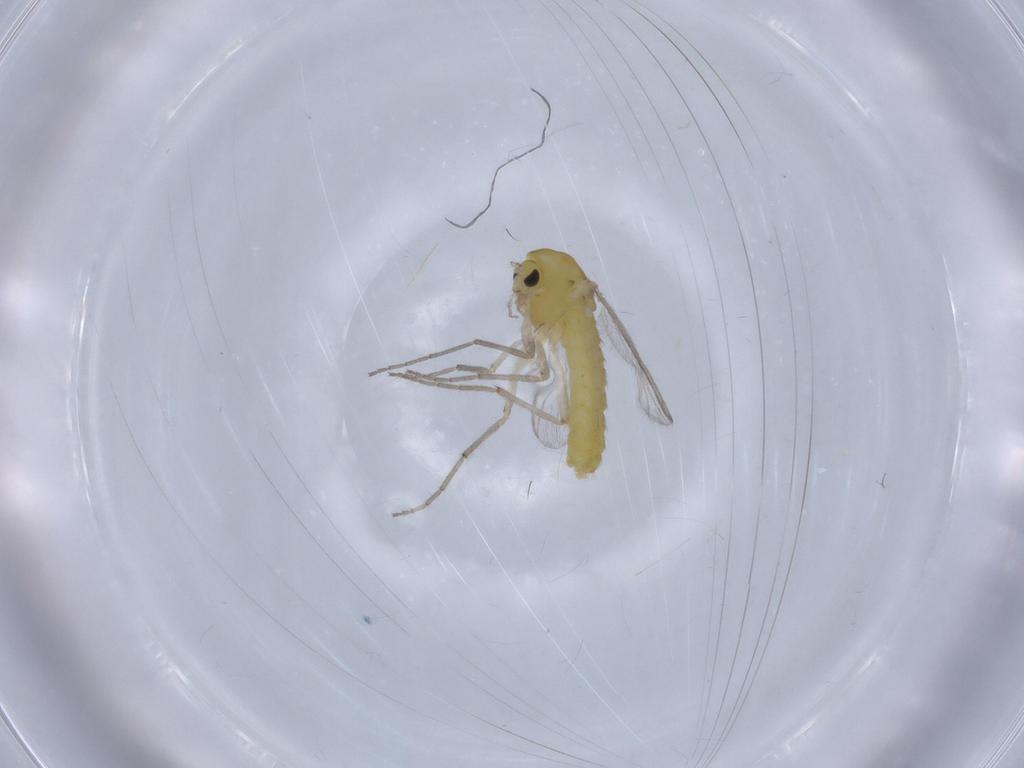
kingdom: Animalia
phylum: Arthropoda
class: Insecta
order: Diptera
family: Chironomidae
